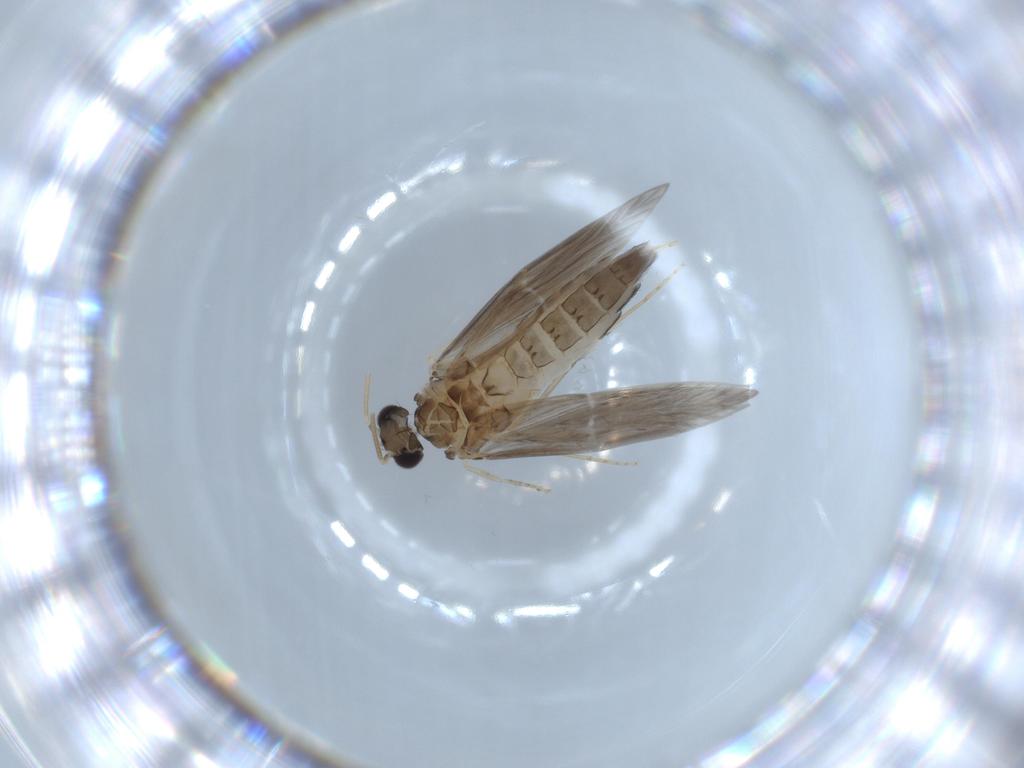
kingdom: Animalia
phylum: Arthropoda
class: Insecta
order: Trichoptera
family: Hydroptilidae
